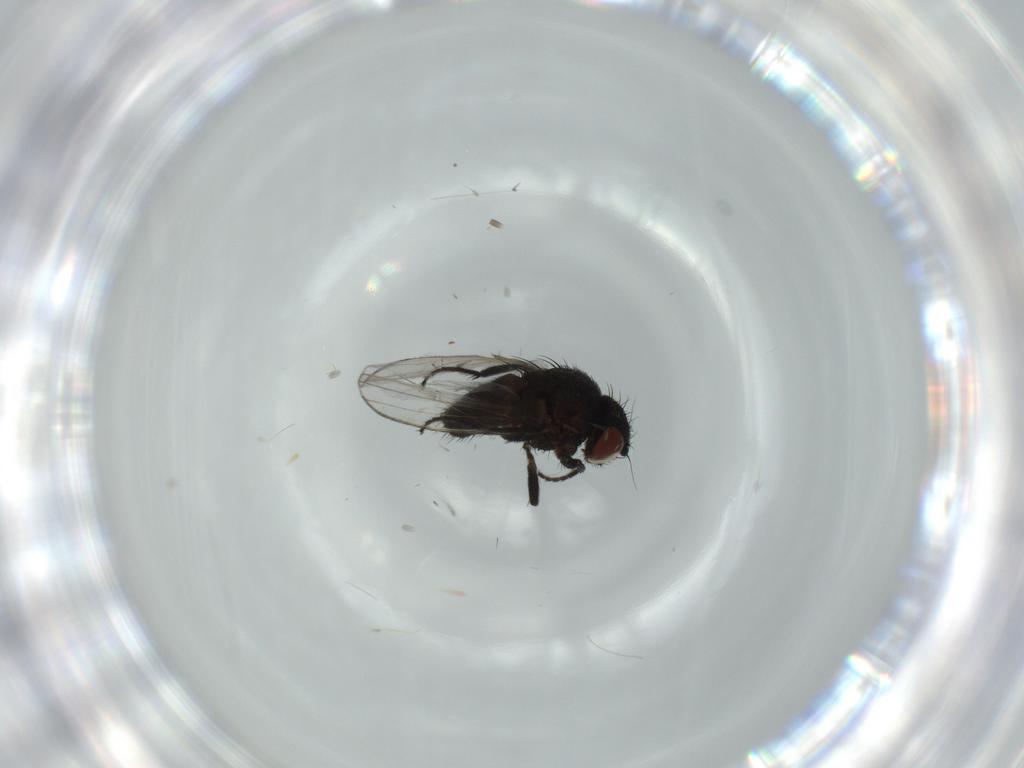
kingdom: Animalia
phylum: Arthropoda
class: Insecta
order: Diptera
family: Milichiidae
